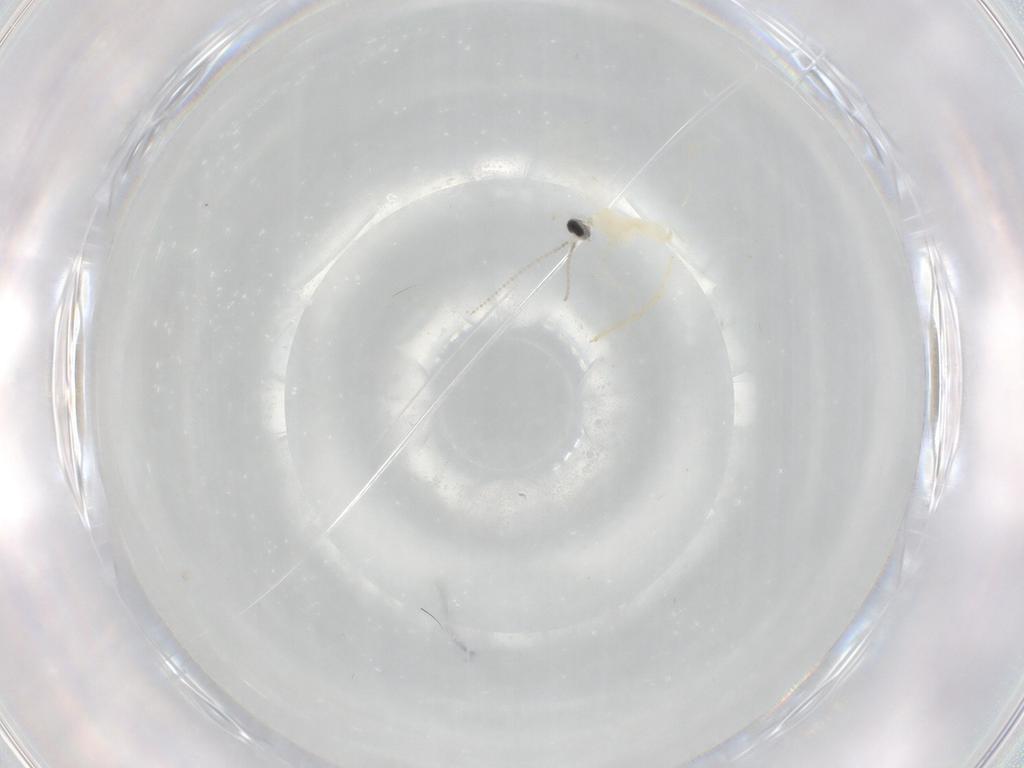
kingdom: Animalia
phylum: Arthropoda
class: Insecta
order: Diptera
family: Cecidomyiidae
